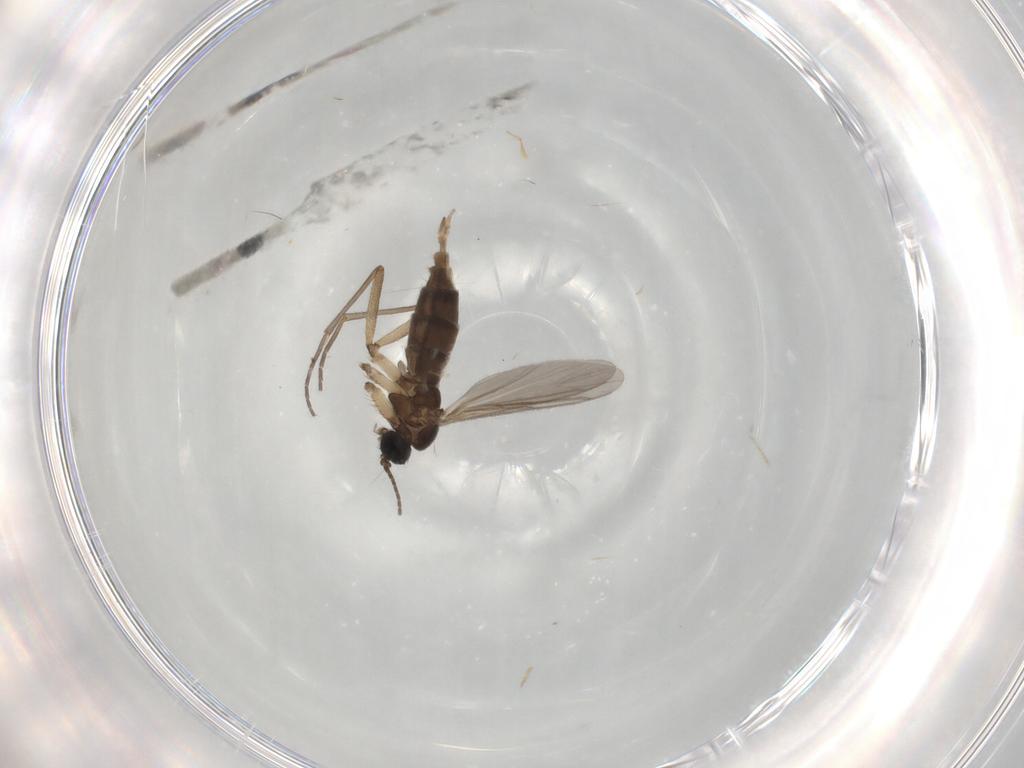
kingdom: Animalia
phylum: Arthropoda
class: Insecta
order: Diptera
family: Sciaridae
